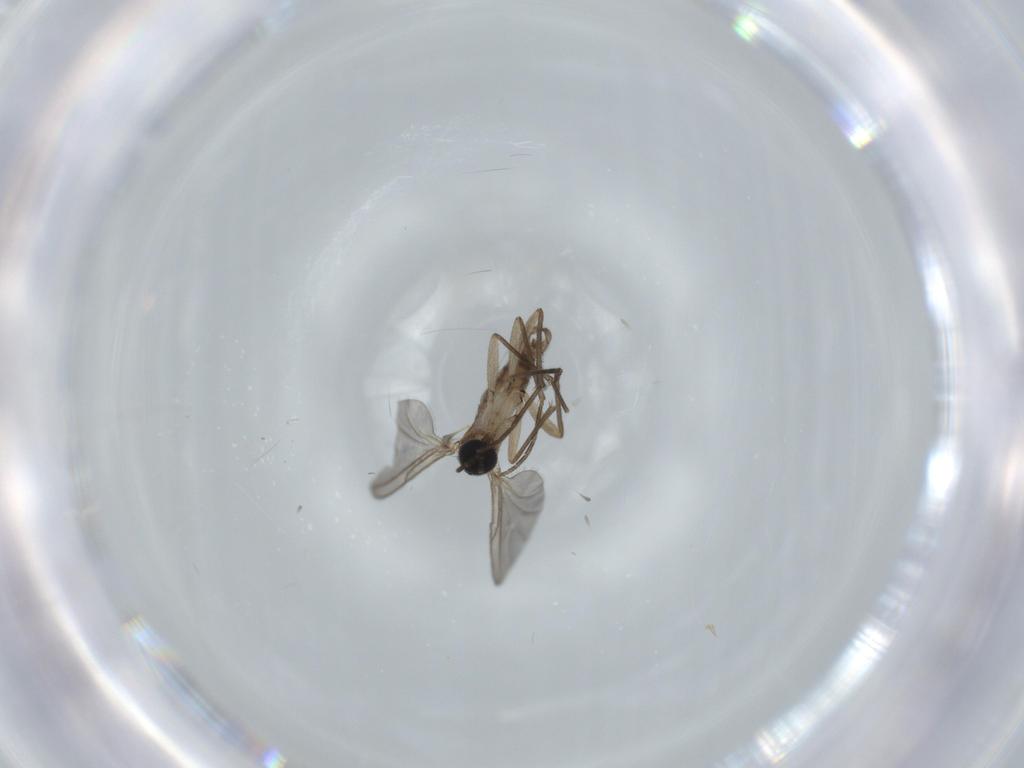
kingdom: Animalia
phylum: Arthropoda
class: Insecta
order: Diptera
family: Sciaridae
